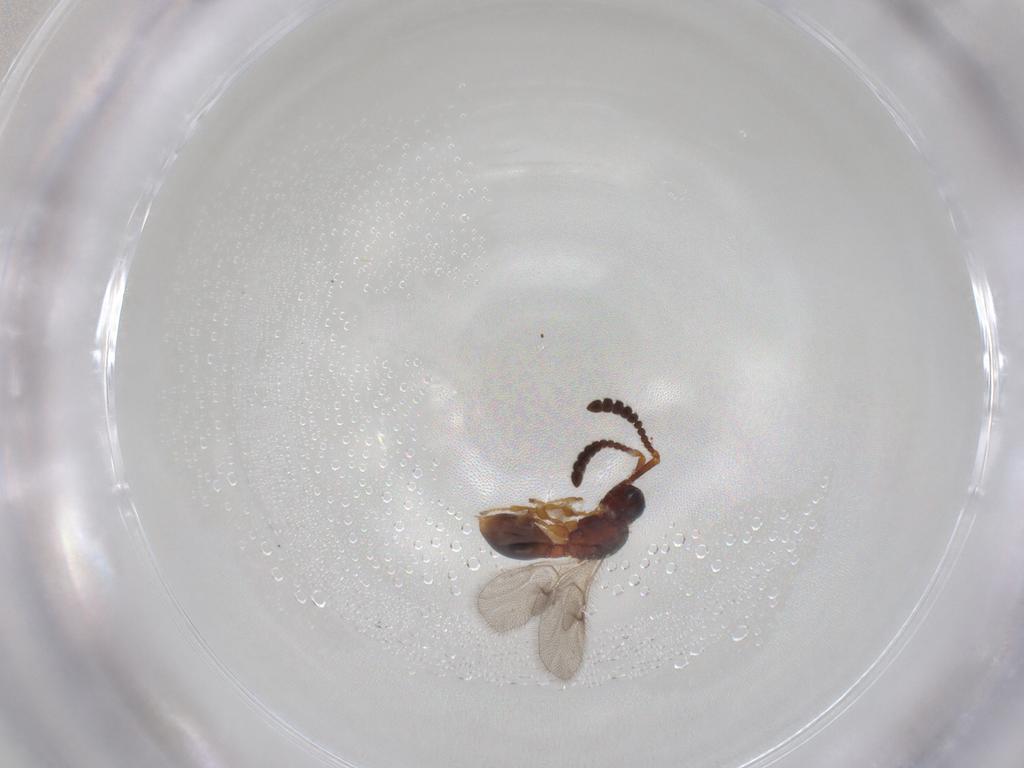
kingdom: Animalia
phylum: Arthropoda
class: Insecta
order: Hymenoptera
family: Diapriidae
